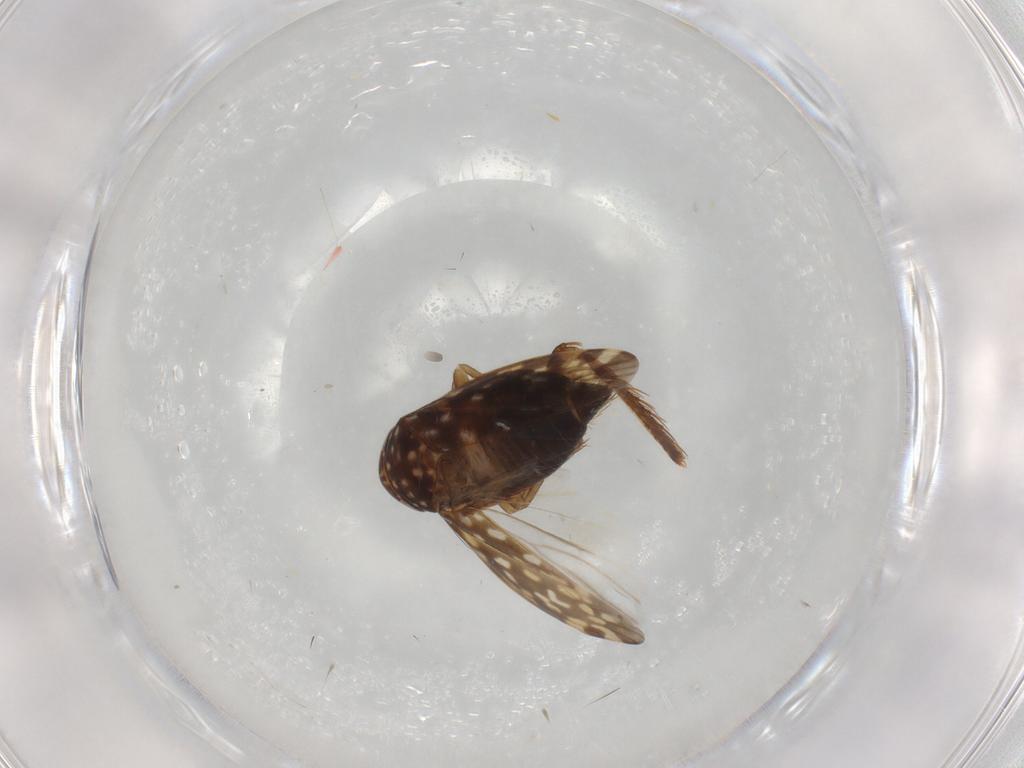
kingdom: Animalia
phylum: Arthropoda
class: Insecta
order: Hemiptera
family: Cicadellidae
